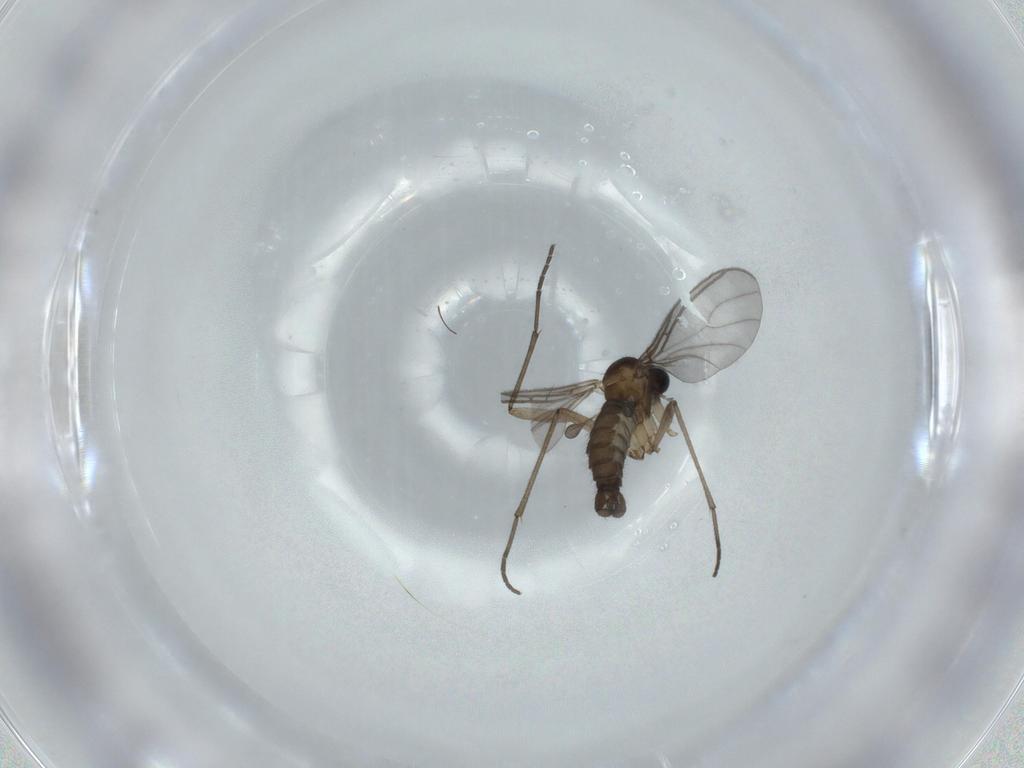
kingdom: Animalia
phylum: Arthropoda
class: Insecta
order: Diptera
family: Sciaridae
